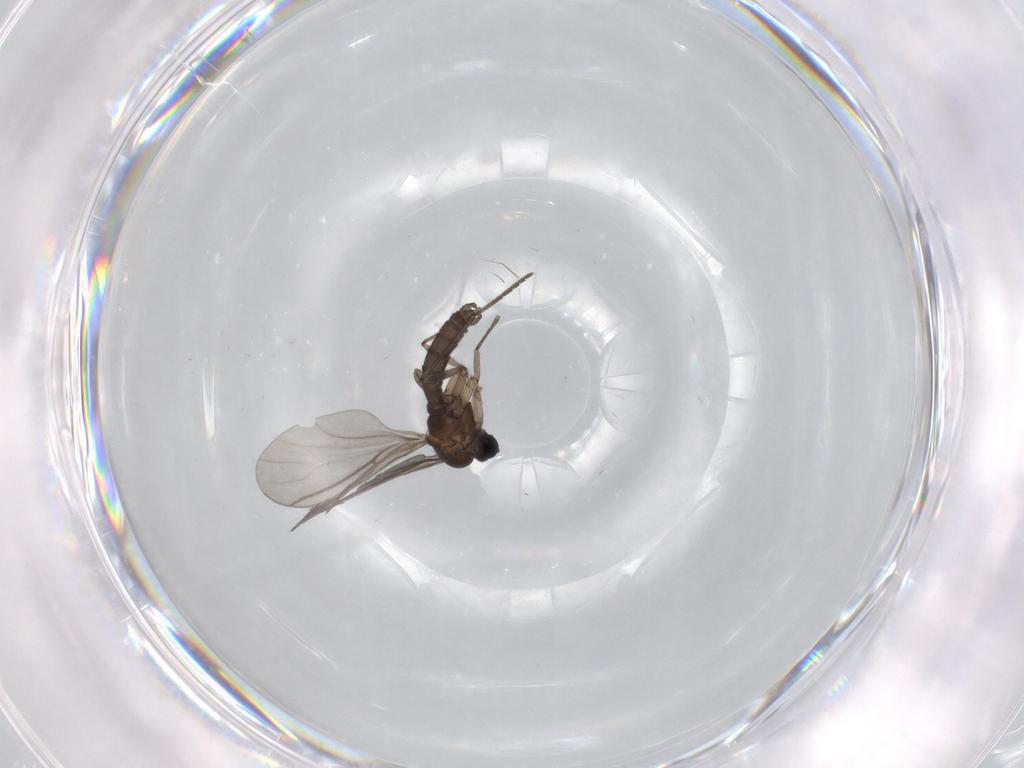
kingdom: Animalia
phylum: Arthropoda
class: Insecta
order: Diptera
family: Sciaridae
